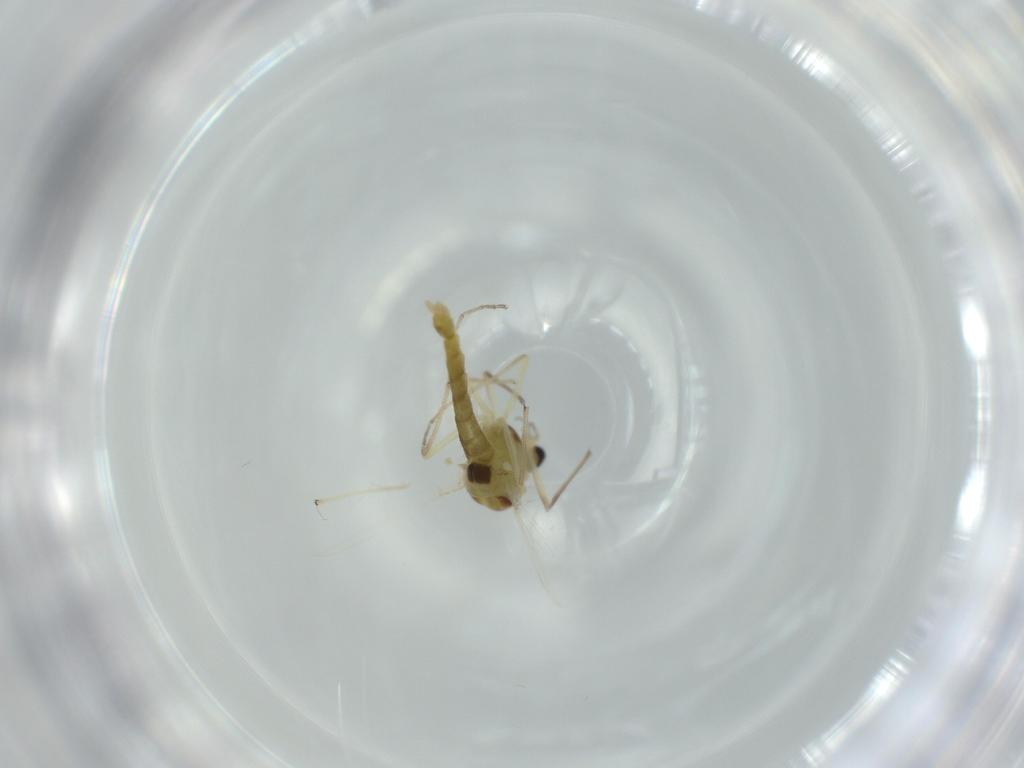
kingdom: Animalia
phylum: Arthropoda
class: Insecta
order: Diptera
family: Chironomidae
